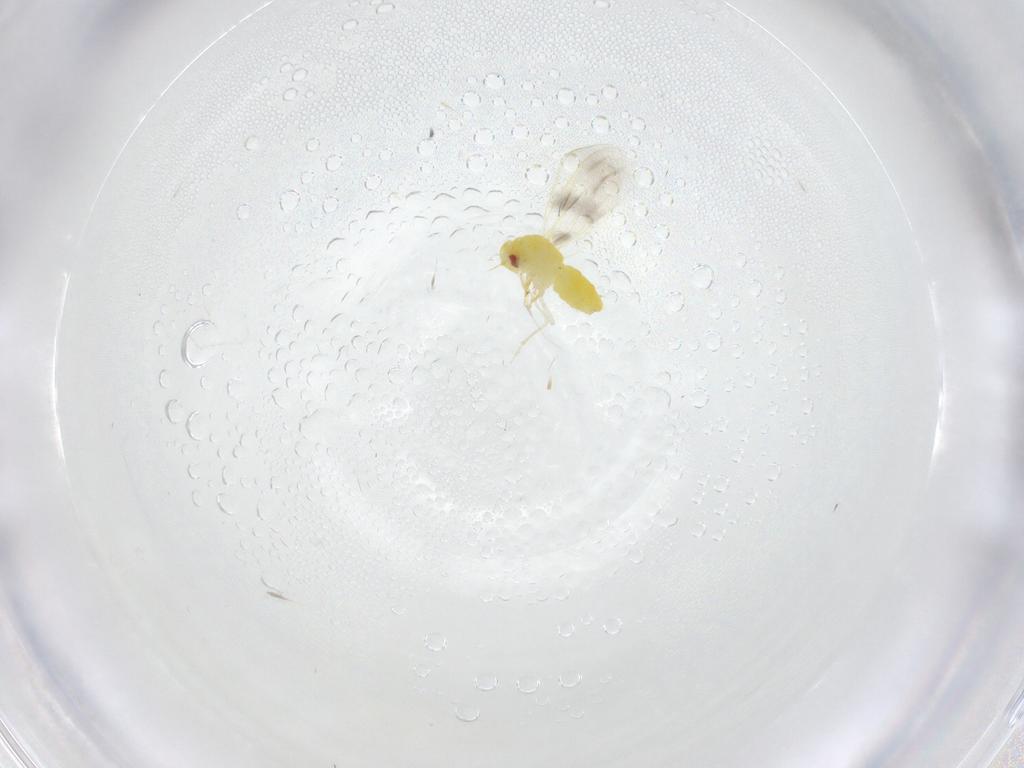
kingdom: Animalia
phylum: Arthropoda
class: Insecta
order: Hemiptera
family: Aleyrodidae
